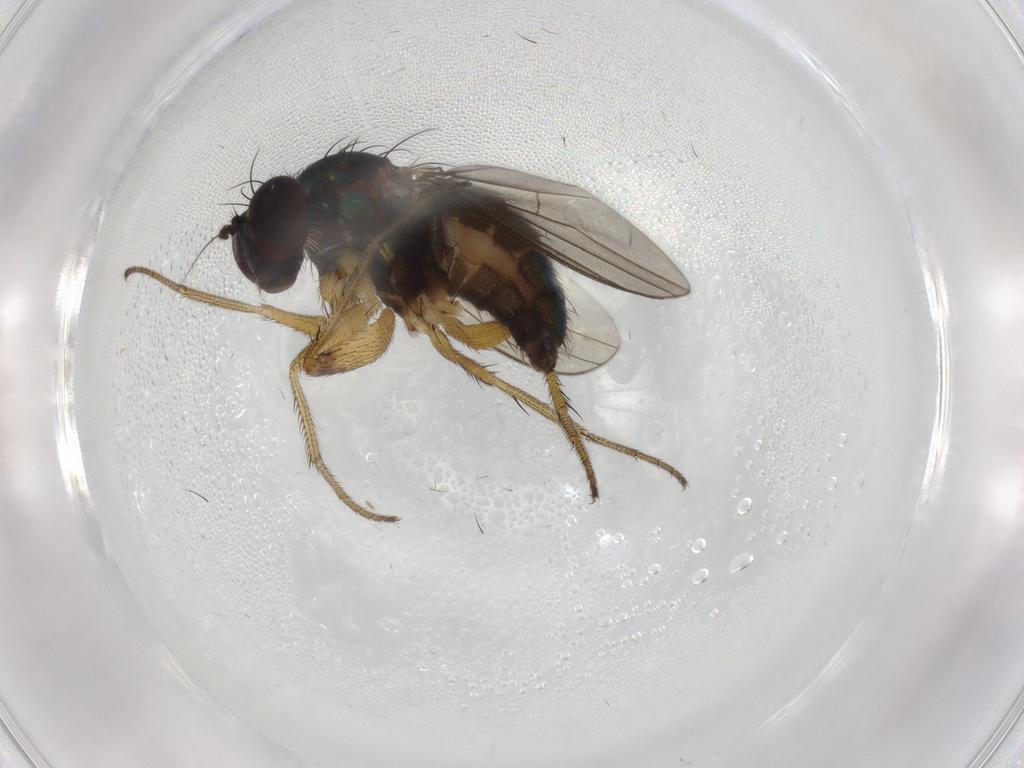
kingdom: Animalia
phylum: Arthropoda
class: Insecta
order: Diptera
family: Dolichopodidae
